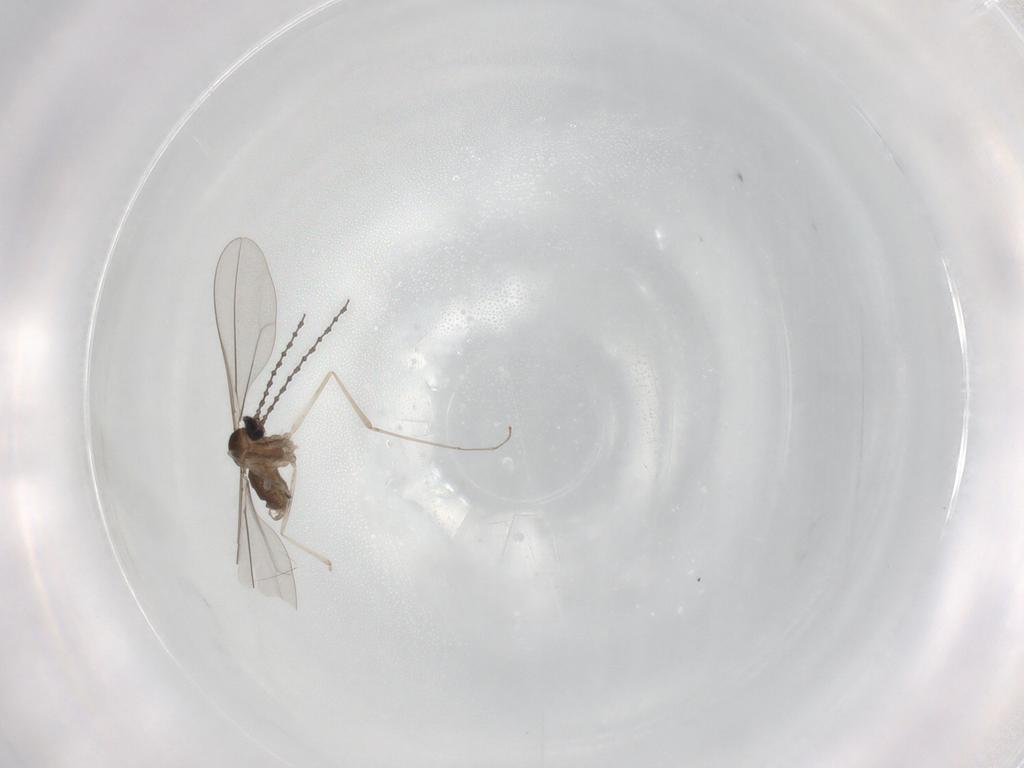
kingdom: Animalia
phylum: Arthropoda
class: Insecta
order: Diptera
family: Cecidomyiidae
